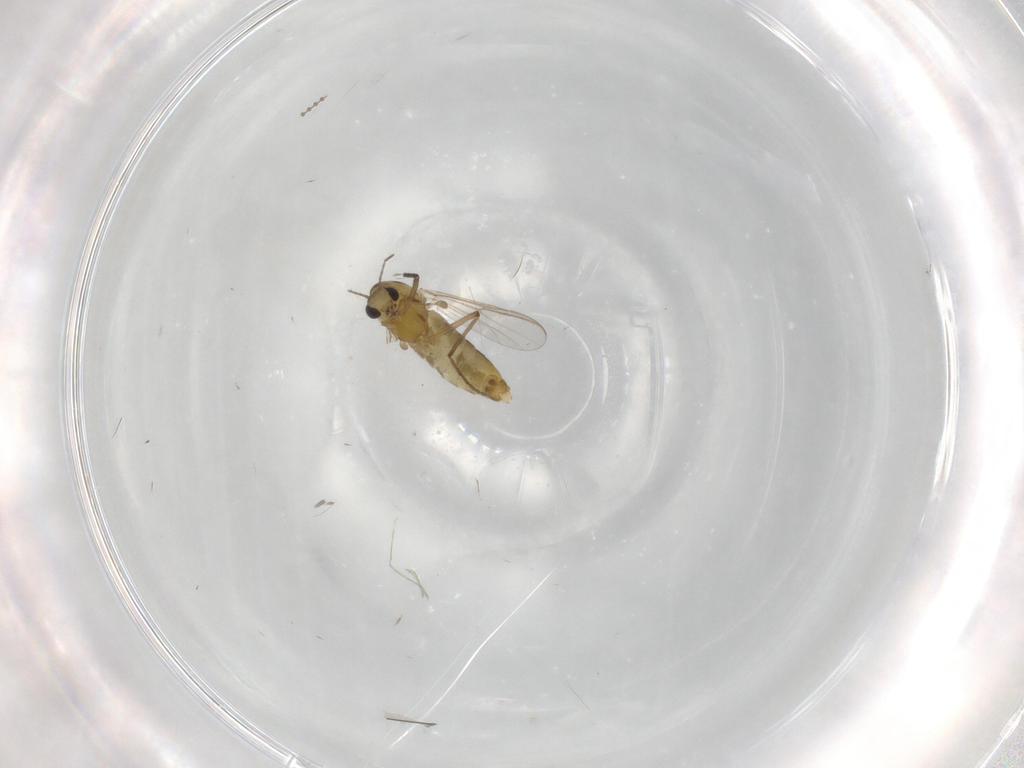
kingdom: Animalia
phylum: Arthropoda
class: Insecta
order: Diptera
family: Chironomidae
